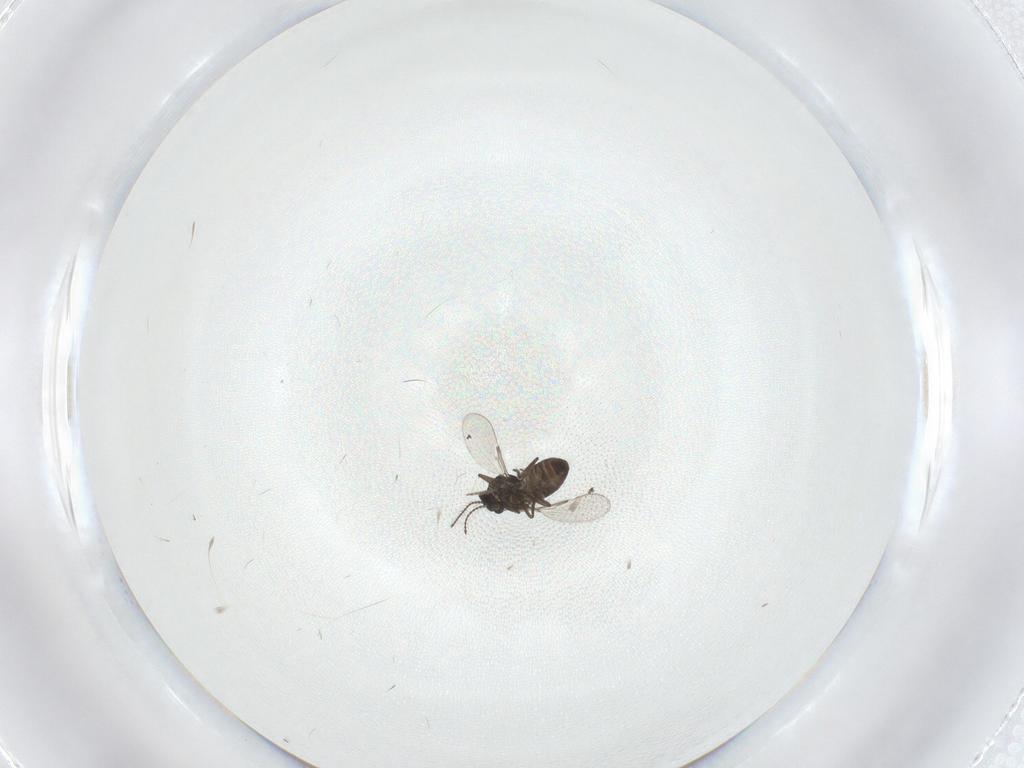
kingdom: Animalia
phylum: Arthropoda
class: Insecta
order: Diptera
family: Ceratopogonidae
